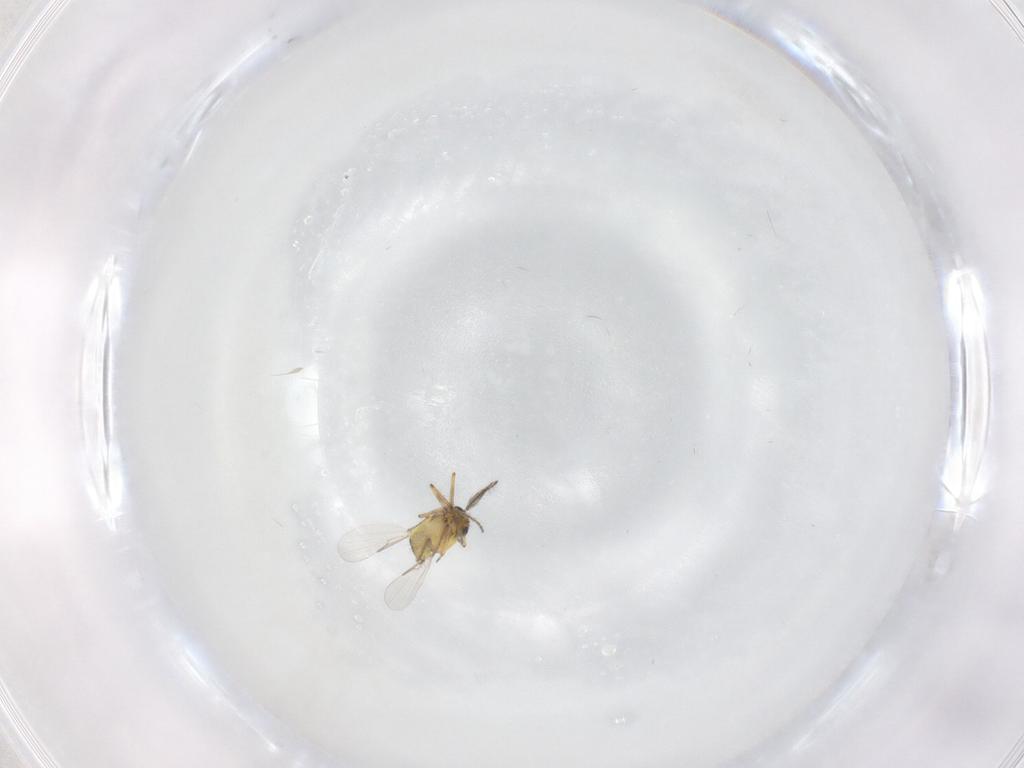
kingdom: Animalia
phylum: Arthropoda
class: Insecta
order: Diptera
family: Ceratopogonidae
